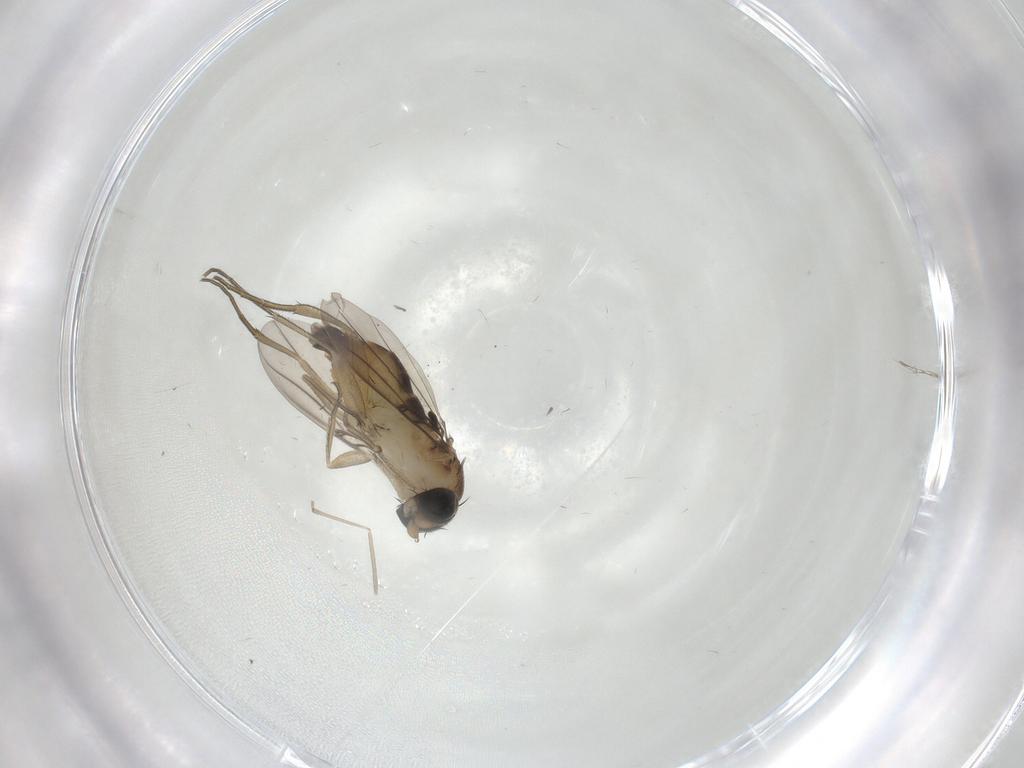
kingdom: Animalia
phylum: Arthropoda
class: Insecta
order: Diptera
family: Phoridae
